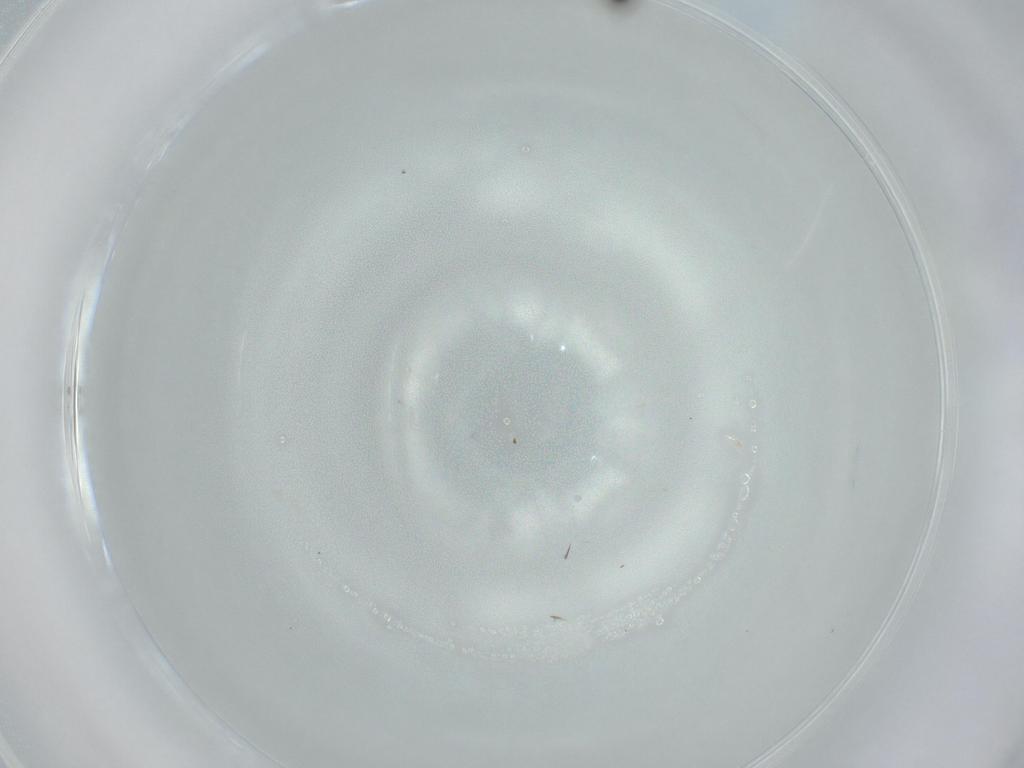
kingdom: Animalia
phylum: Arthropoda
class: Insecta
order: Diptera
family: Cecidomyiidae
